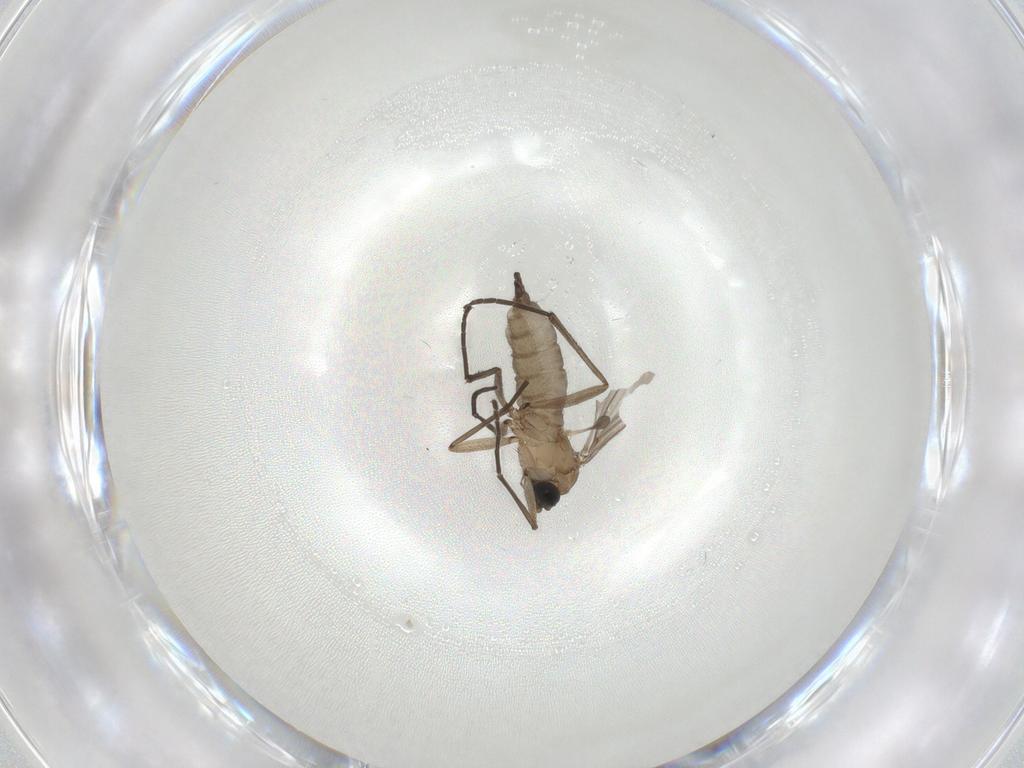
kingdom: Animalia
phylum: Arthropoda
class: Insecta
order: Diptera
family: Sciaridae
